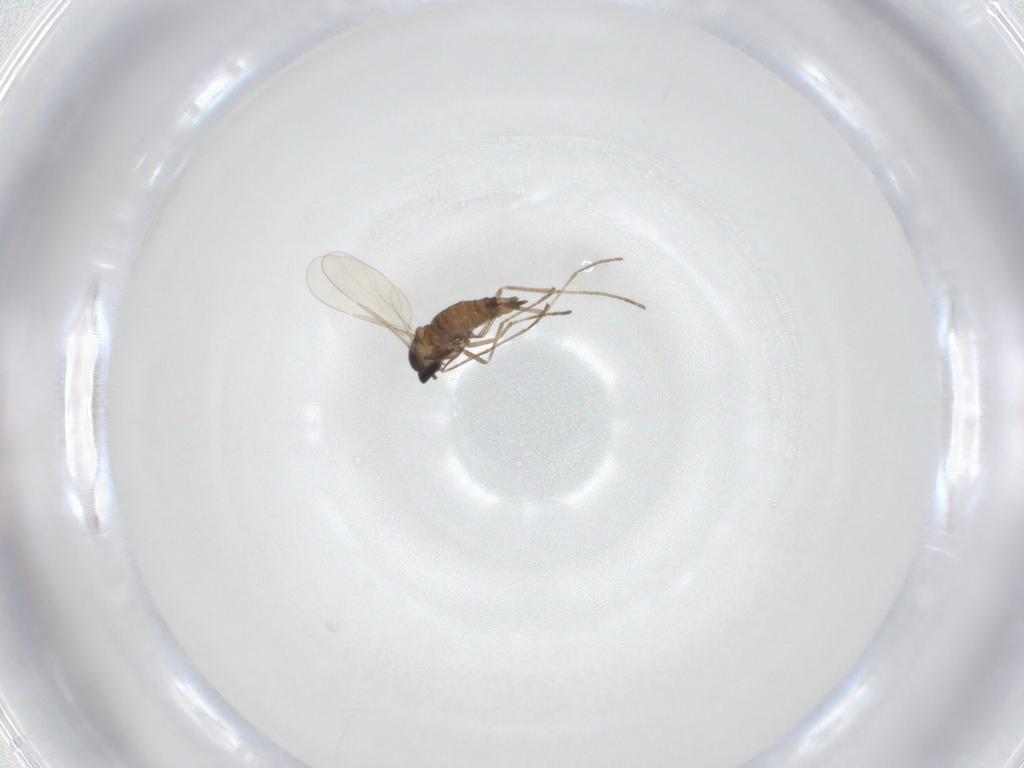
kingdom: Animalia
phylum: Arthropoda
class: Insecta
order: Diptera
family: Cecidomyiidae
